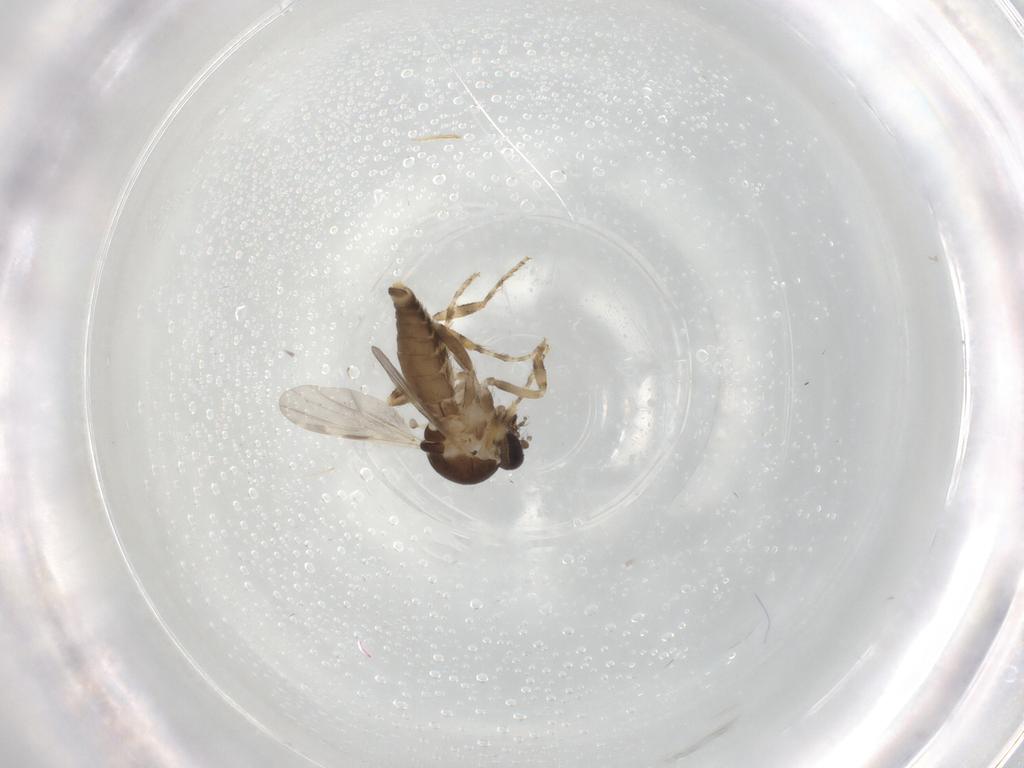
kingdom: Animalia
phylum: Arthropoda
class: Insecta
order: Diptera
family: Ceratopogonidae
